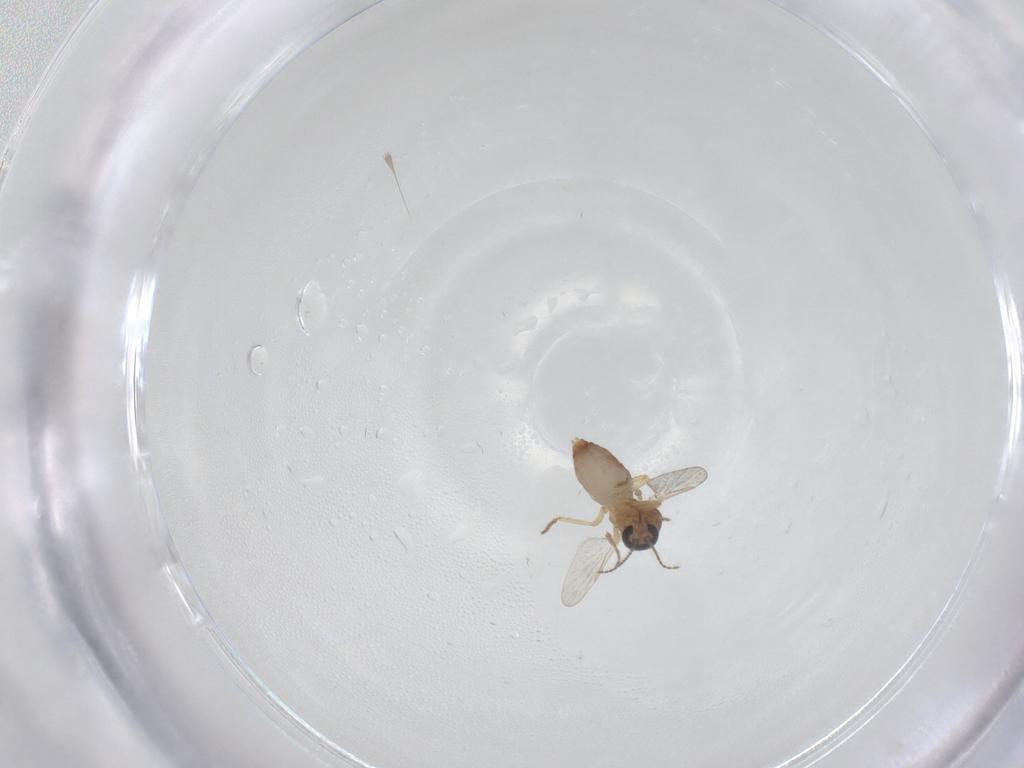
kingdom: Animalia
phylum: Arthropoda
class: Insecta
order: Diptera
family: Ceratopogonidae
